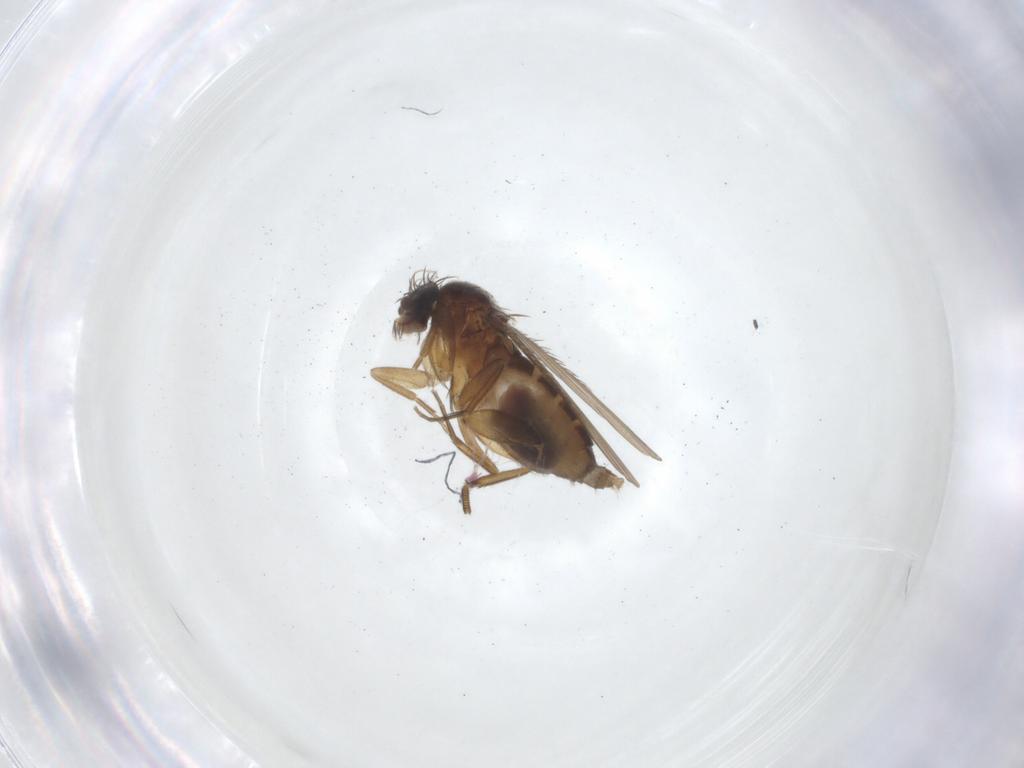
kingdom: Animalia
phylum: Arthropoda
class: Insecta
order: Diptera
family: Phoridae
